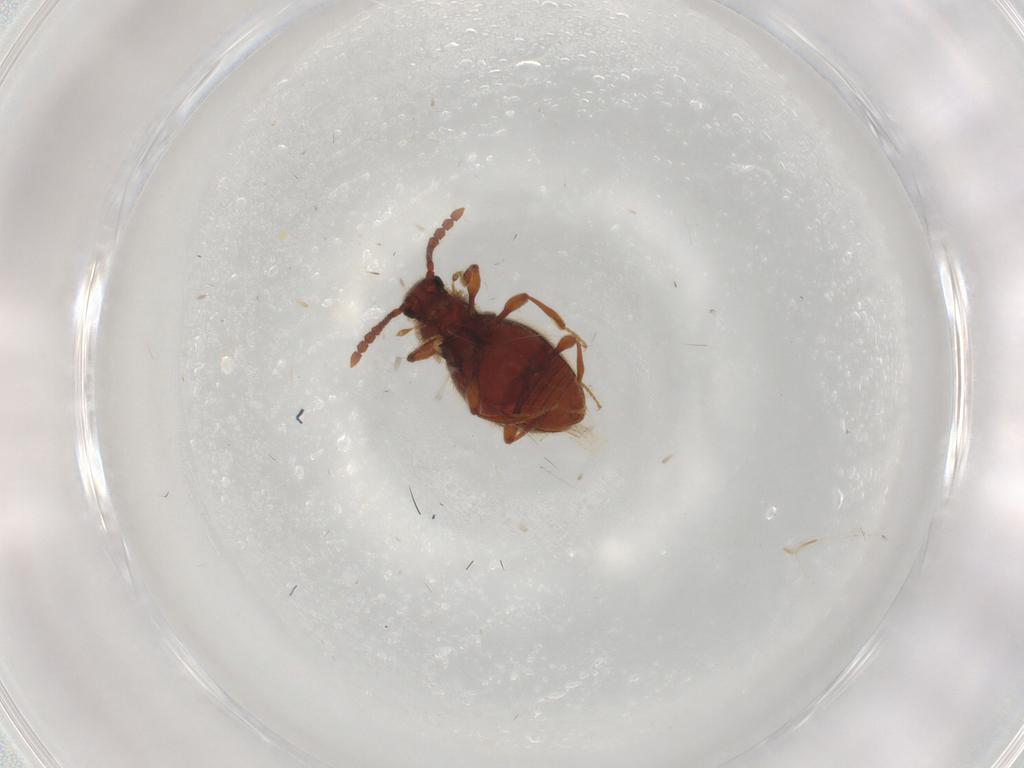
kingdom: Animalia
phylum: Arthropoda
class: Insecta
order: Coleoptera
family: Staphylinidae
